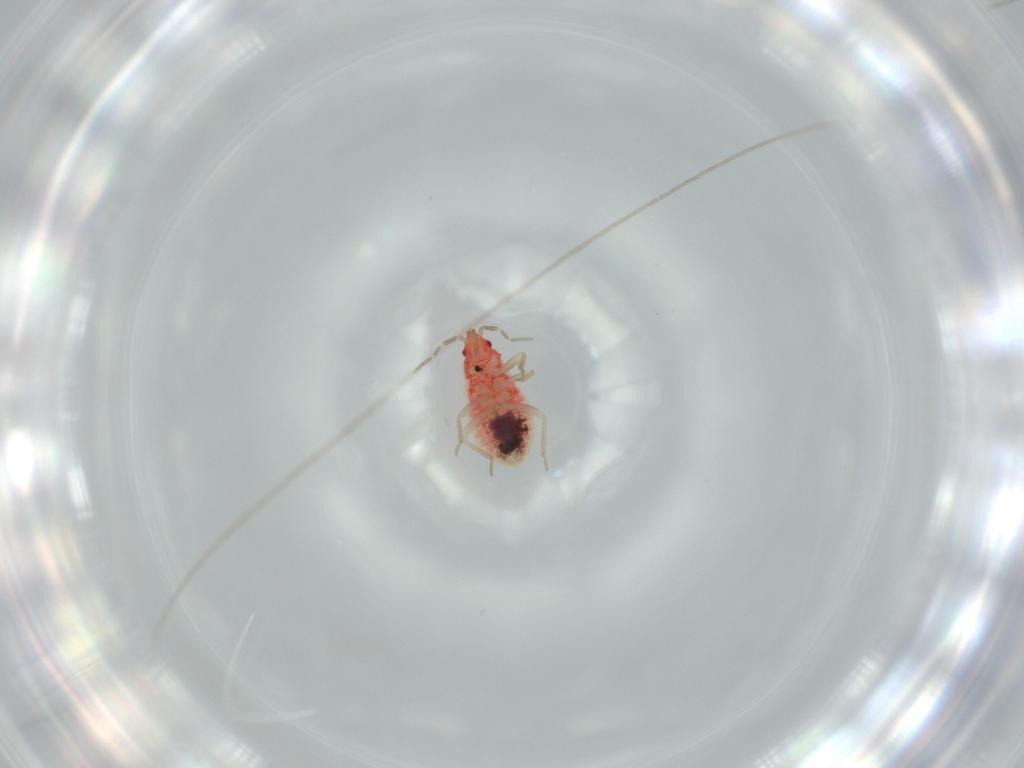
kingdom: Animalia
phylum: Arthropoda
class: Insecta
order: Hemiptera
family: Anthocoridae
